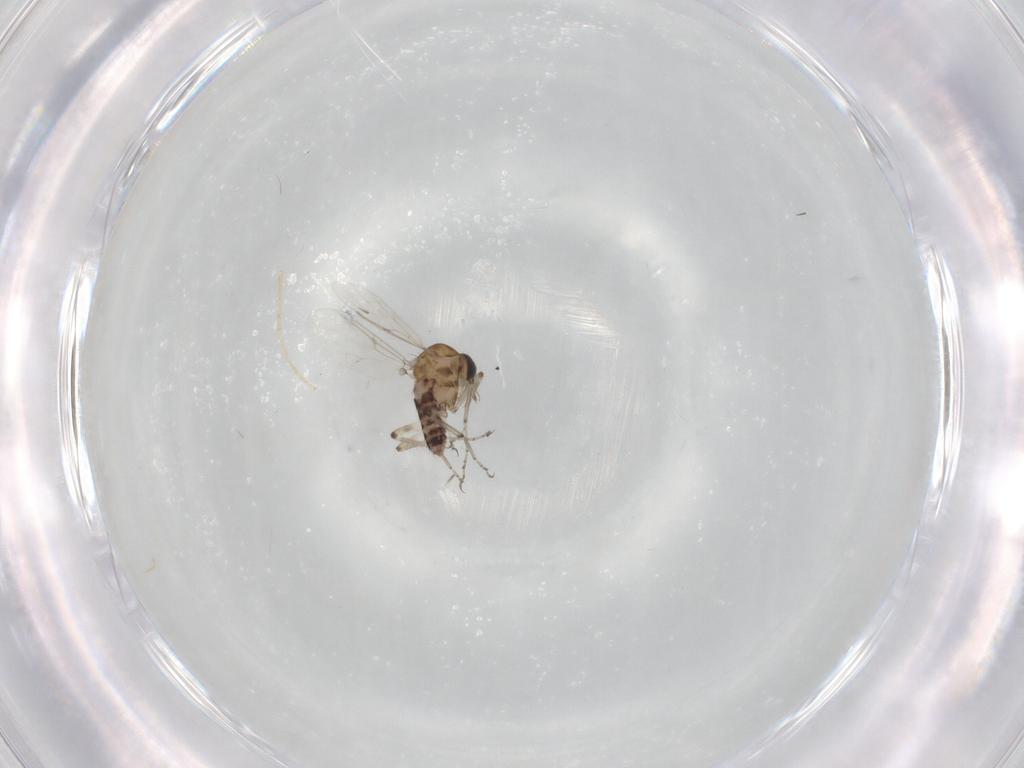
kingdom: Animalia
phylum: Arthropoda
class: Insecta
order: Diptera
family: Ceratopogonidae
